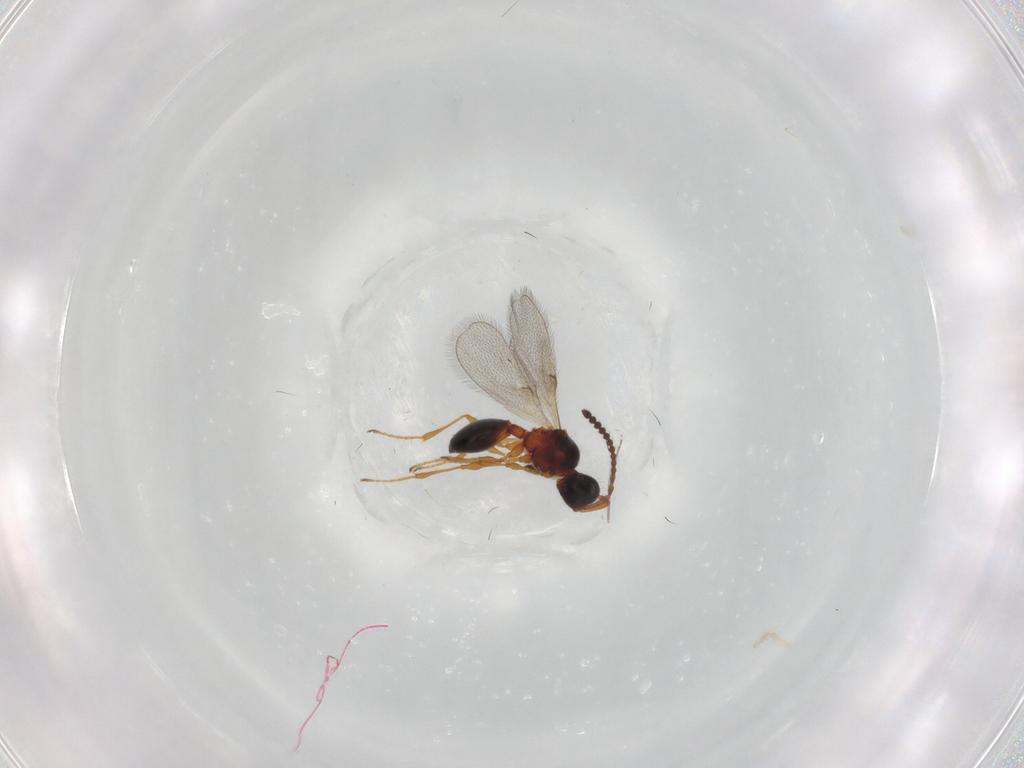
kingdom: Animalia
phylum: Arthropoda
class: Insecta
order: Hymenoptera
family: Diapriidae
